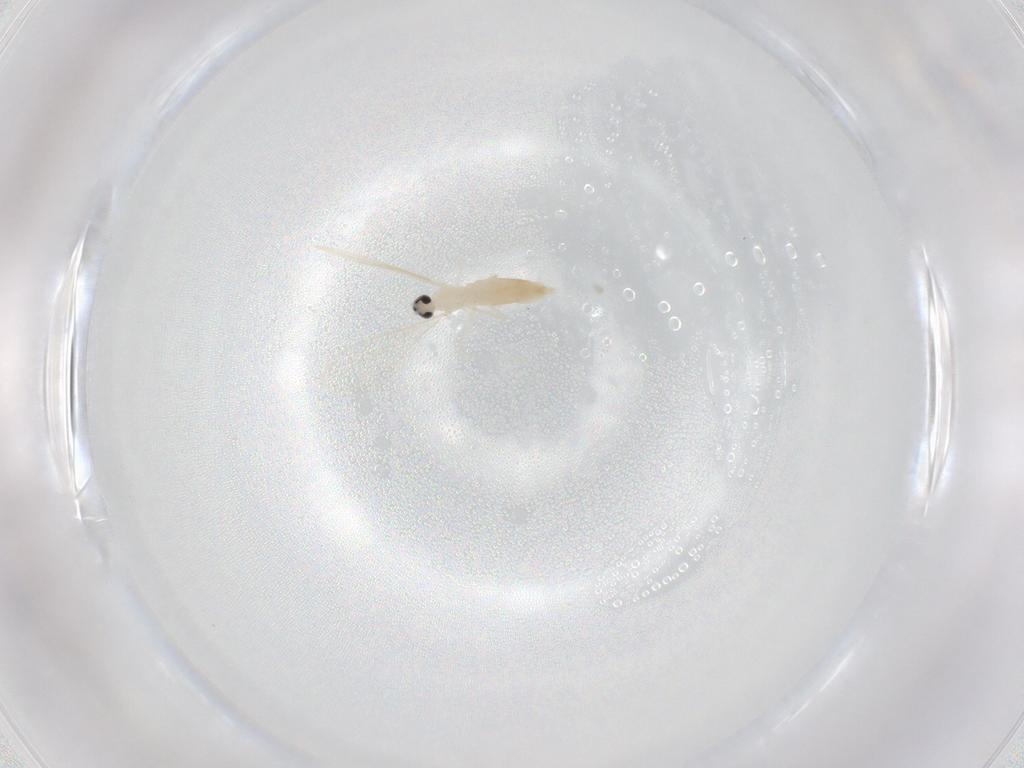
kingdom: Animalia
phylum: Arthropoda
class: Insecta
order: Diptera
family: Cecidomyiidae
